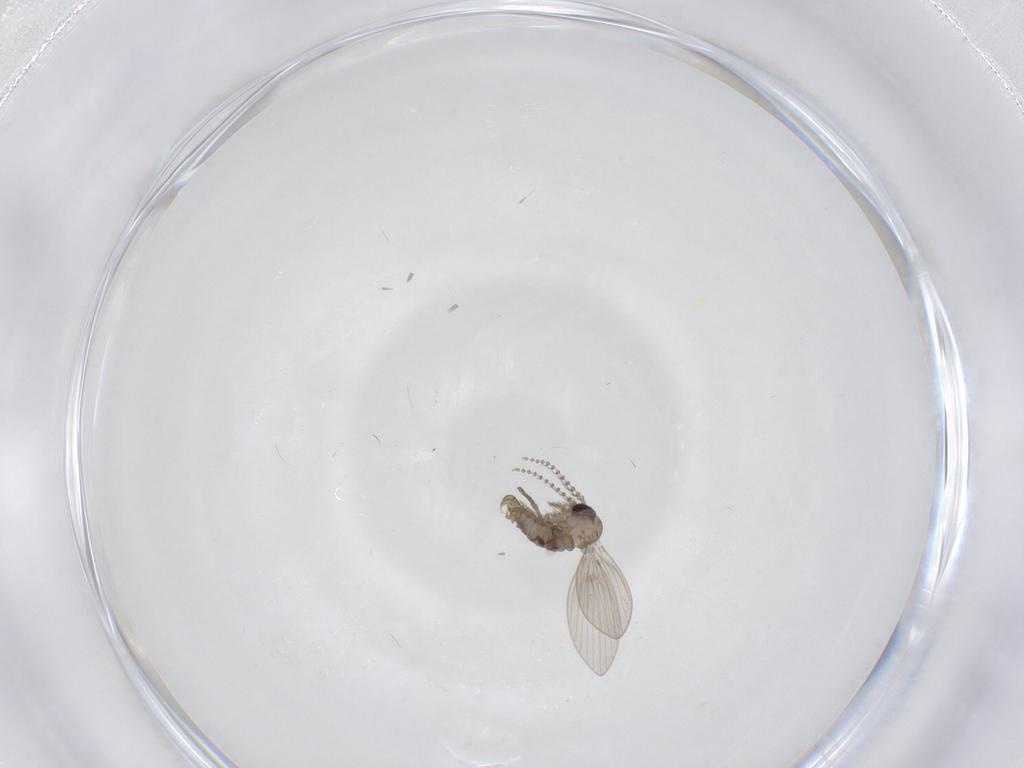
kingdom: Animalia
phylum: Arthropoda
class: Insecta
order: Diptera
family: Psychodidae
